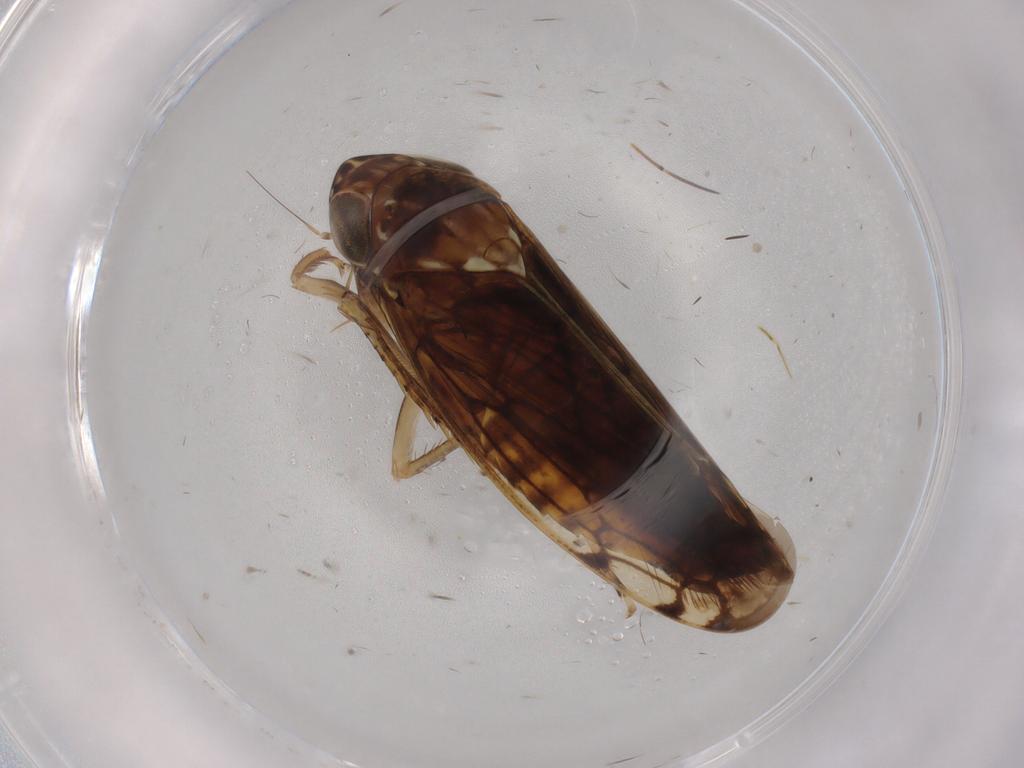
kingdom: Animalia
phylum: Arthropoda
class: Insecta
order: Hemiptera
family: Cicadellidae
